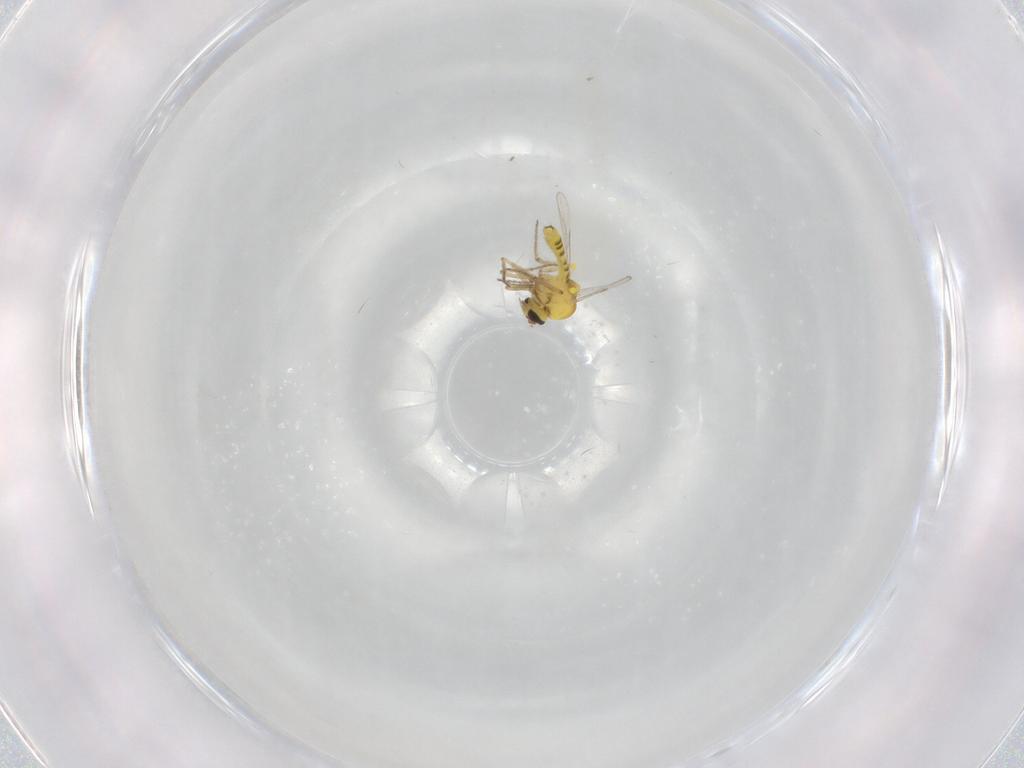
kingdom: Animalia
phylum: Arthropoda
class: Insecta
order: Diptera
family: Ceratopogonidae
